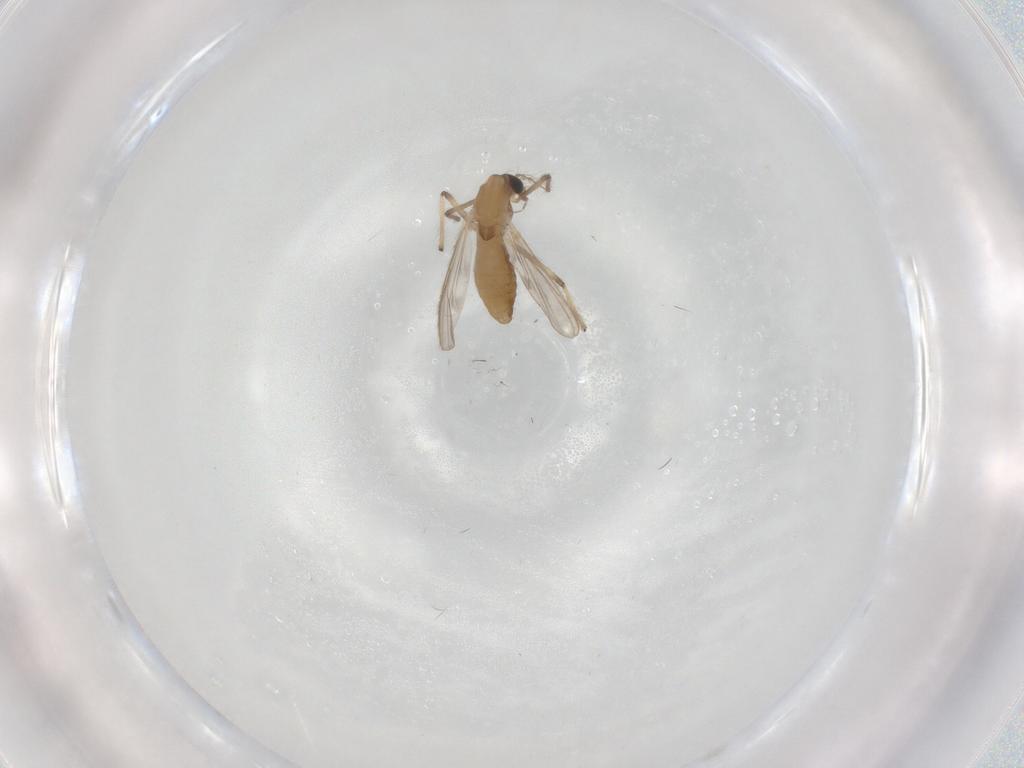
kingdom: Animalia
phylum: Arthropoda
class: Insecta
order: Diptera
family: Chironomidae
